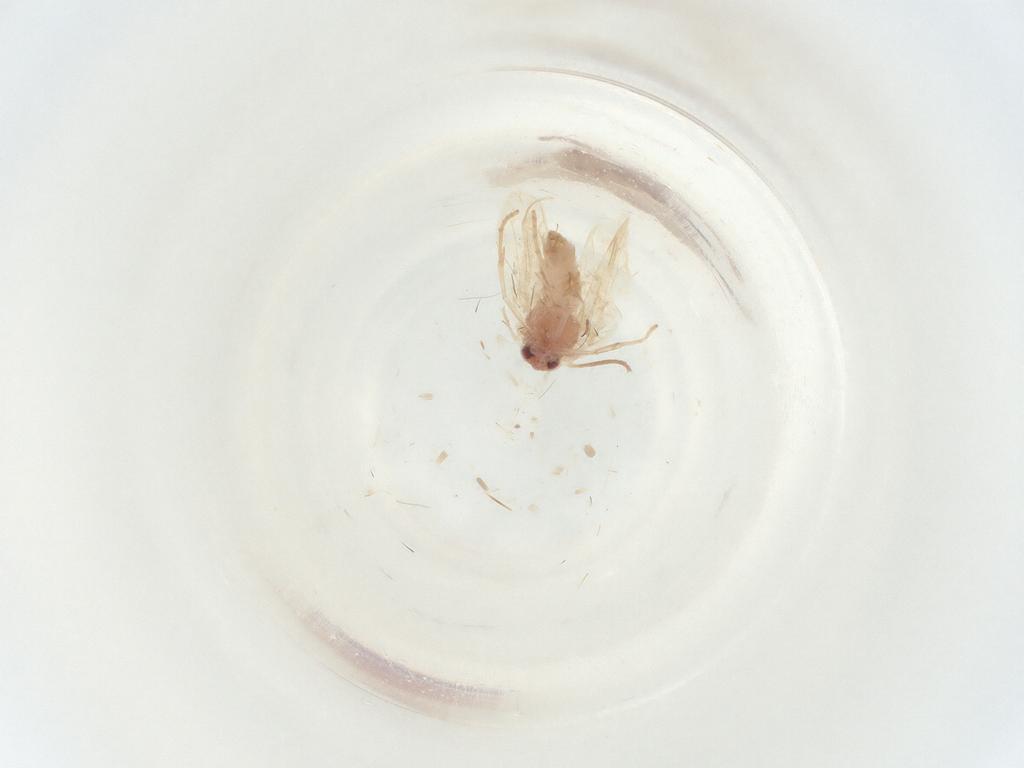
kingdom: Animalia
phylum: Arthropoda
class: Insecta
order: Lepidoptera
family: Lyonetiidae
